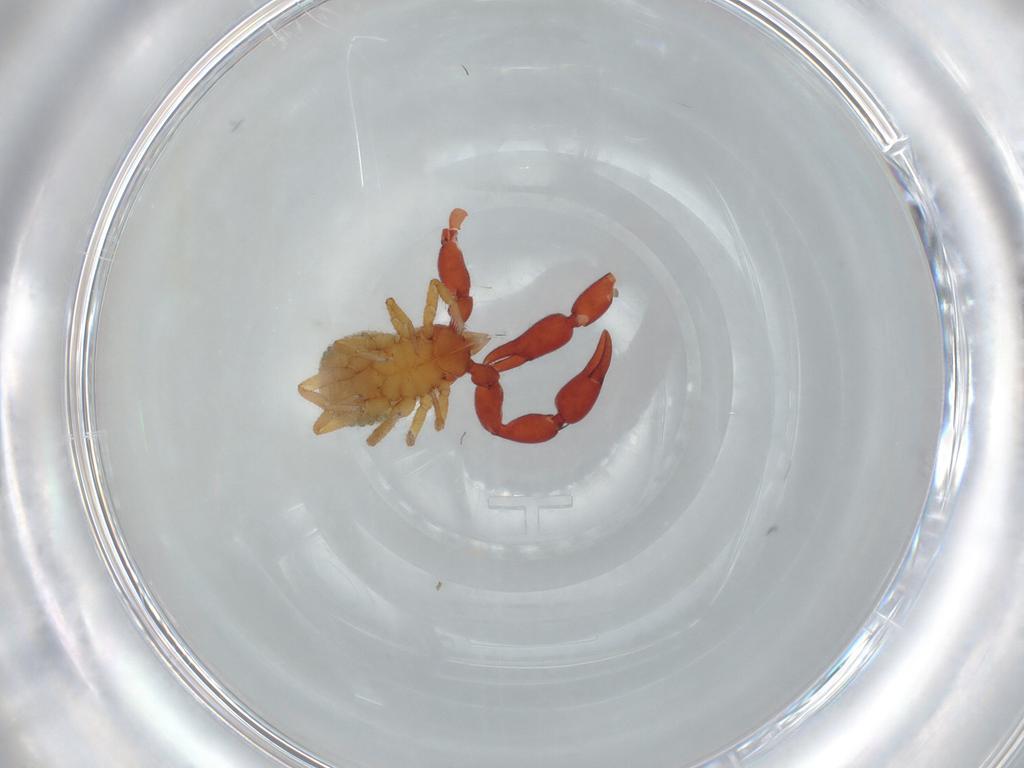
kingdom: Animalia
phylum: Arthropoda
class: Arachnida
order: Pseudoscorpiones
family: Chernetidae
